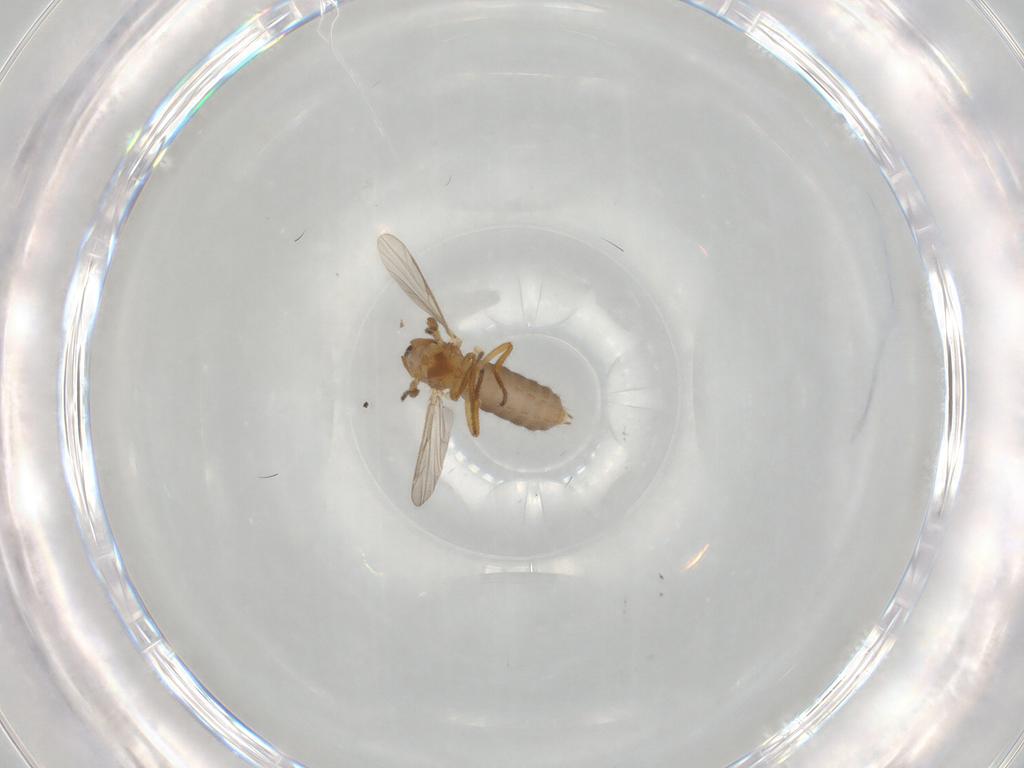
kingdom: Animalia
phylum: Arthropoda
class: Insecta
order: Diptera
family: Ceratopogonidae
